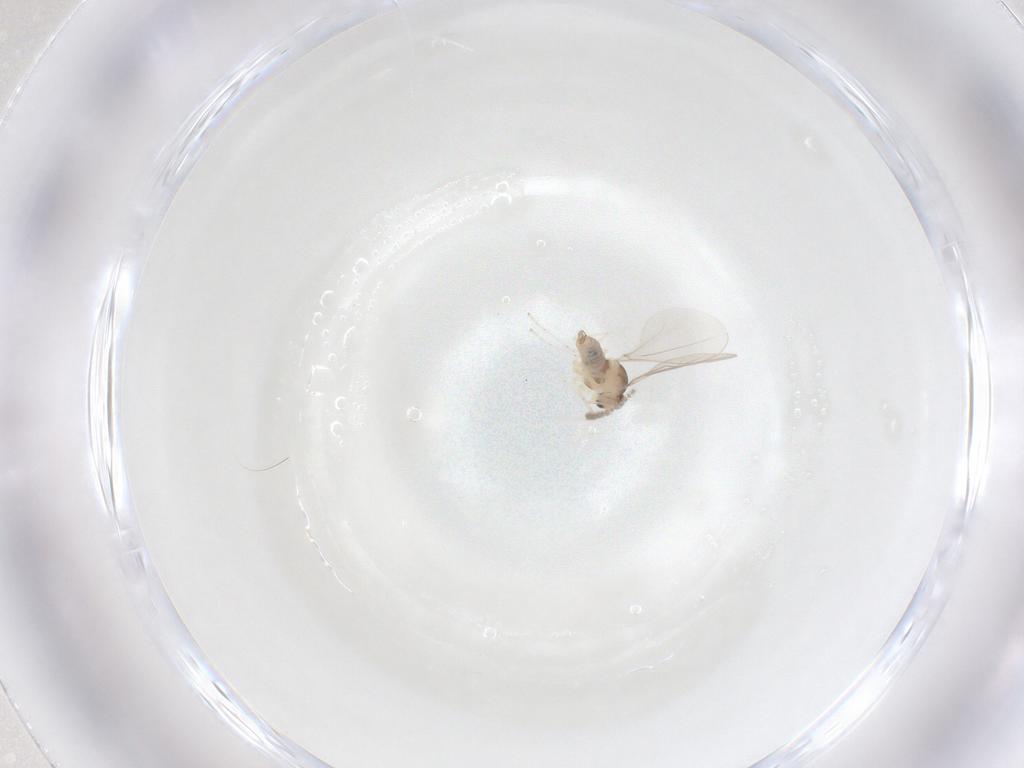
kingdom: Animalia
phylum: Arthropoda
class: Insecta
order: Diptera
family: Cecidomyiidae
